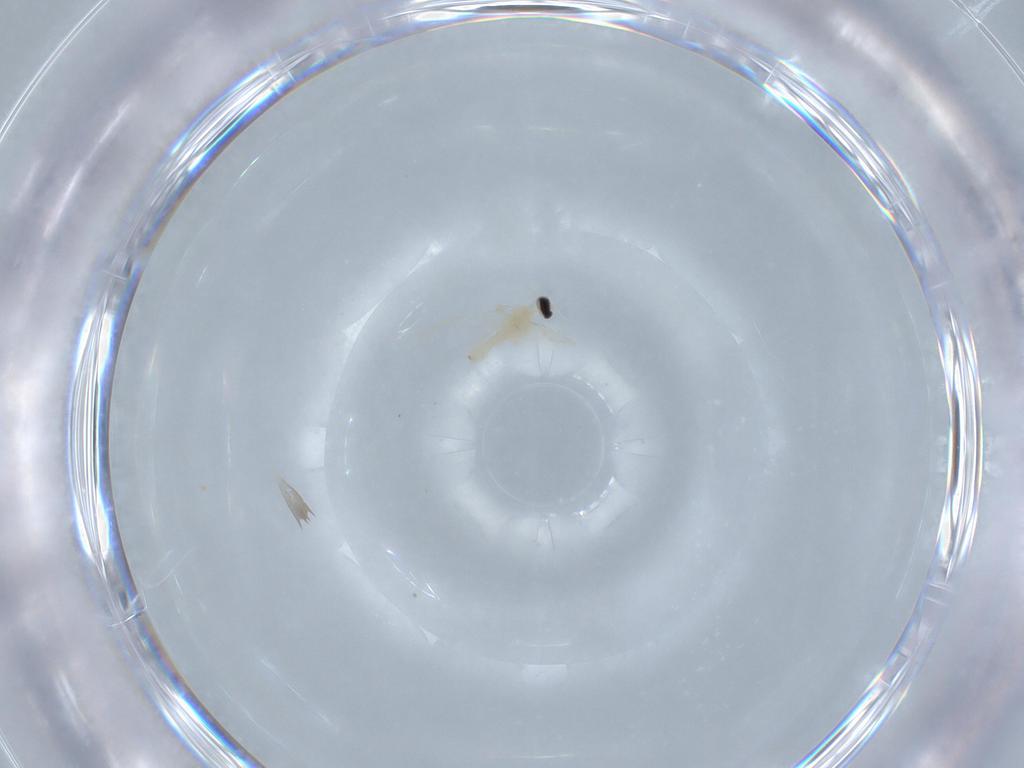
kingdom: Animalia
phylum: Arthropoda
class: Insecta
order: Diptera
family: Cecidomyiidae
